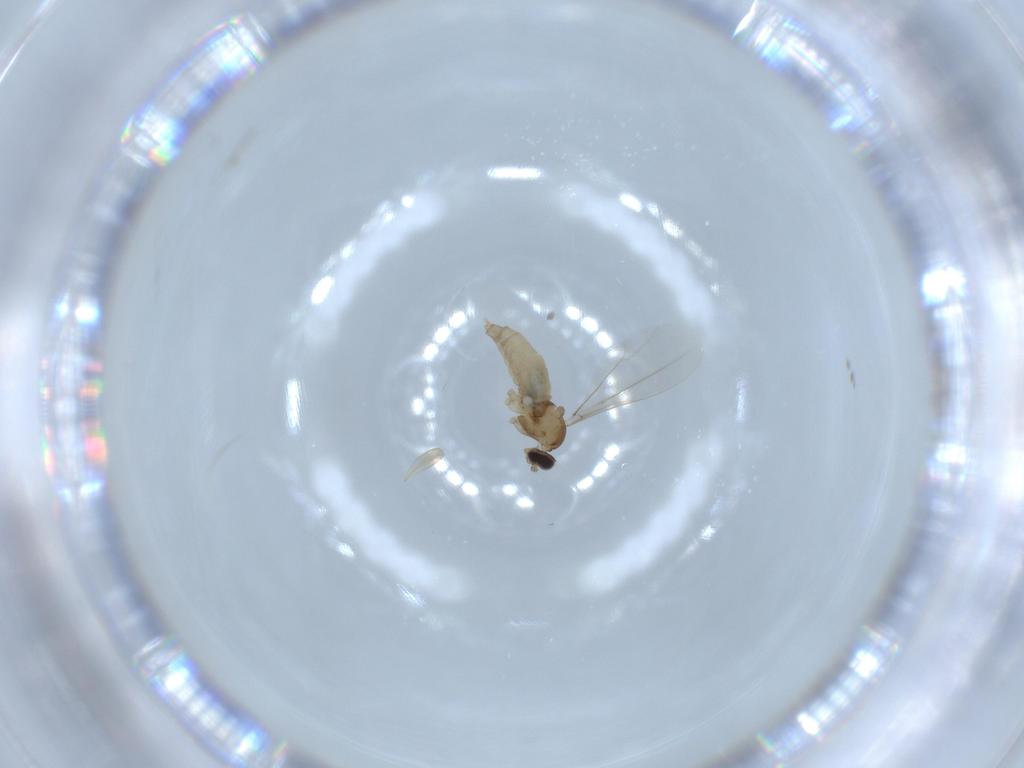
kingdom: Animalia
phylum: Arthropoda
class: Insecta
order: Diptera
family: Cecidomyiidae
